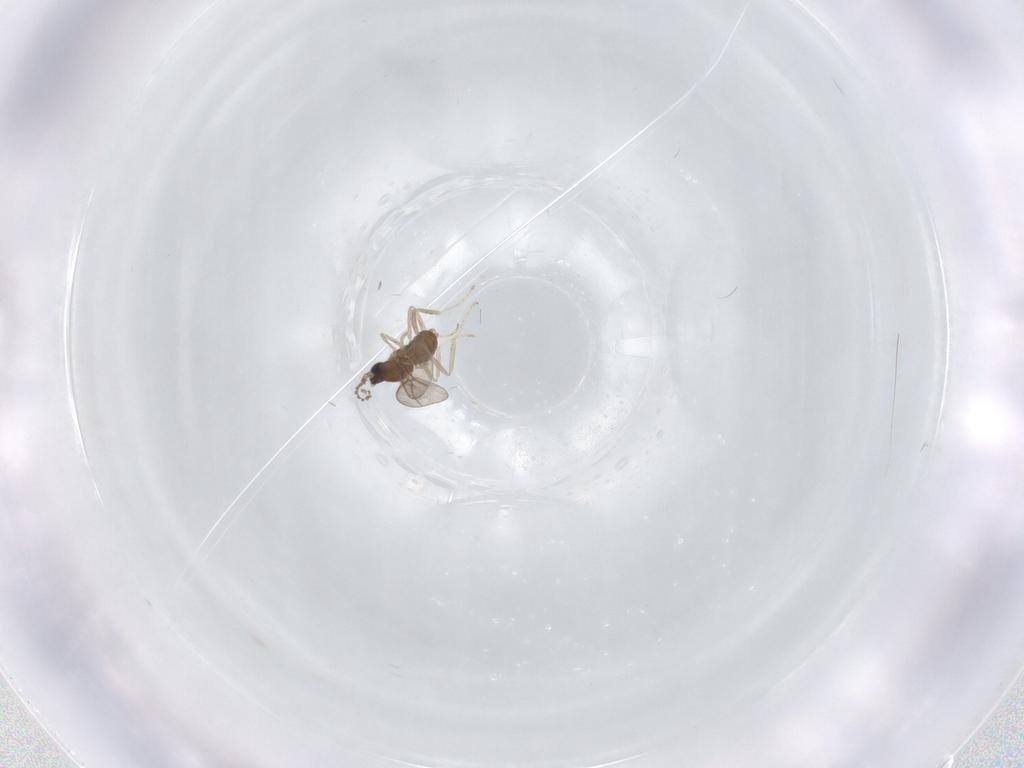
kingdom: Animalia
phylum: Arthropoda
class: Insecta
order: Diptera
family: Cecidomyiidae
